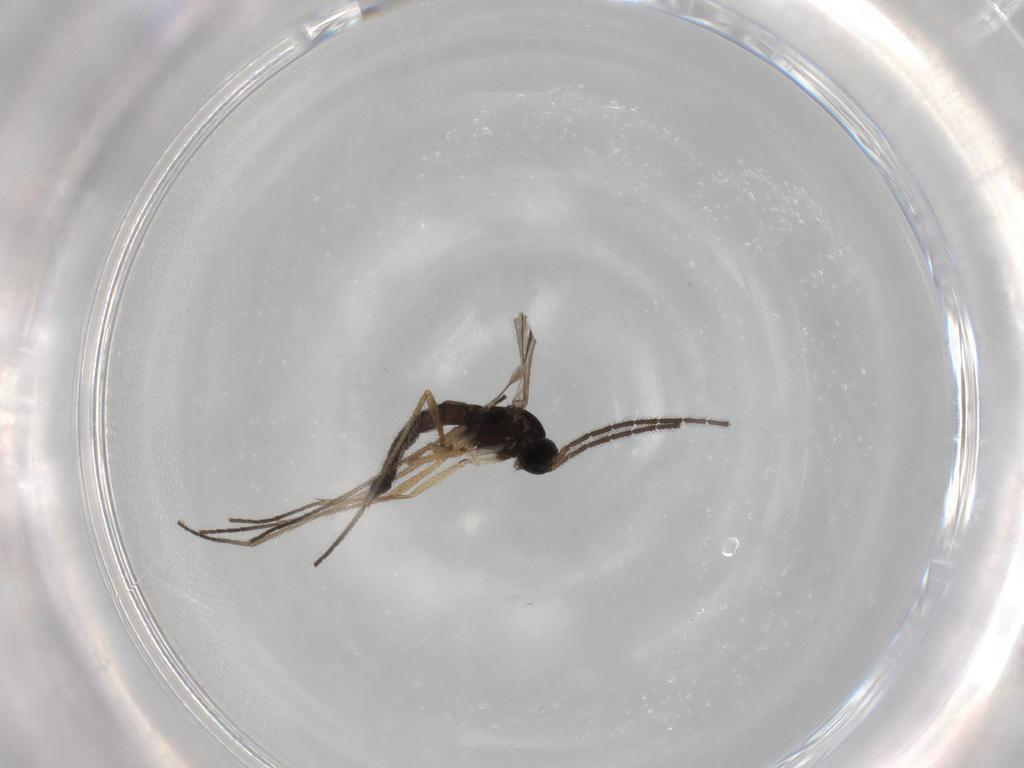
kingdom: Animalia
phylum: Arthropoda
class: Insecta
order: Diptera
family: Sciaridae
